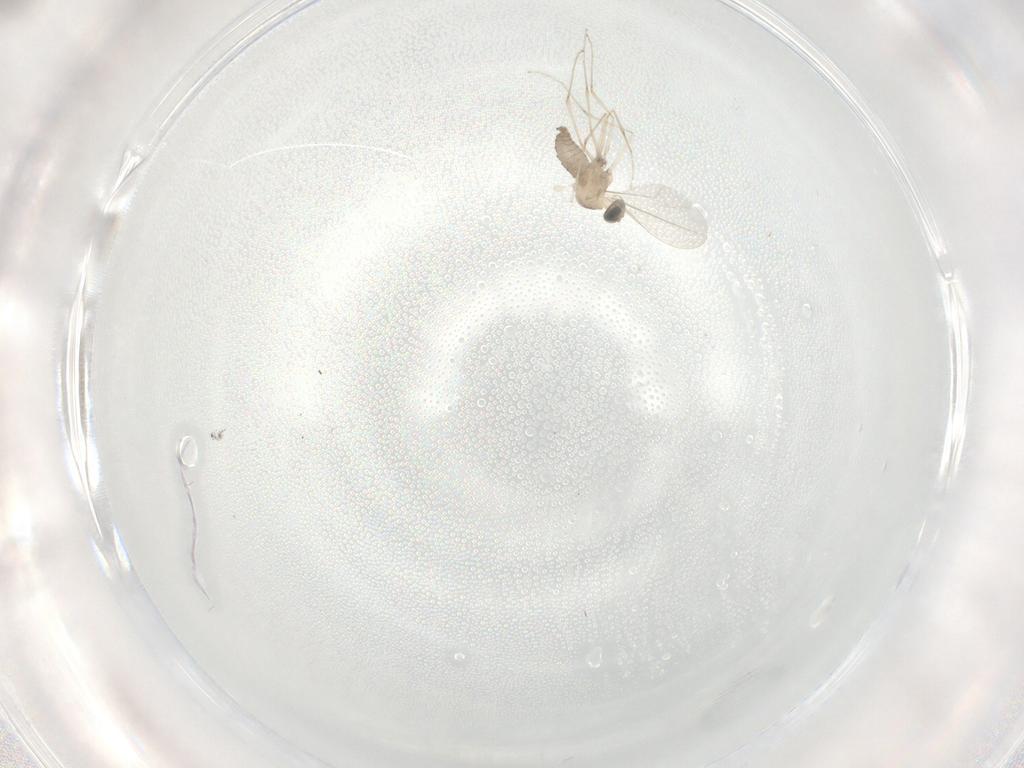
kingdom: Animalia
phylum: Arthropoda
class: Insecta
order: Diptera
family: Cecidomyiidae
